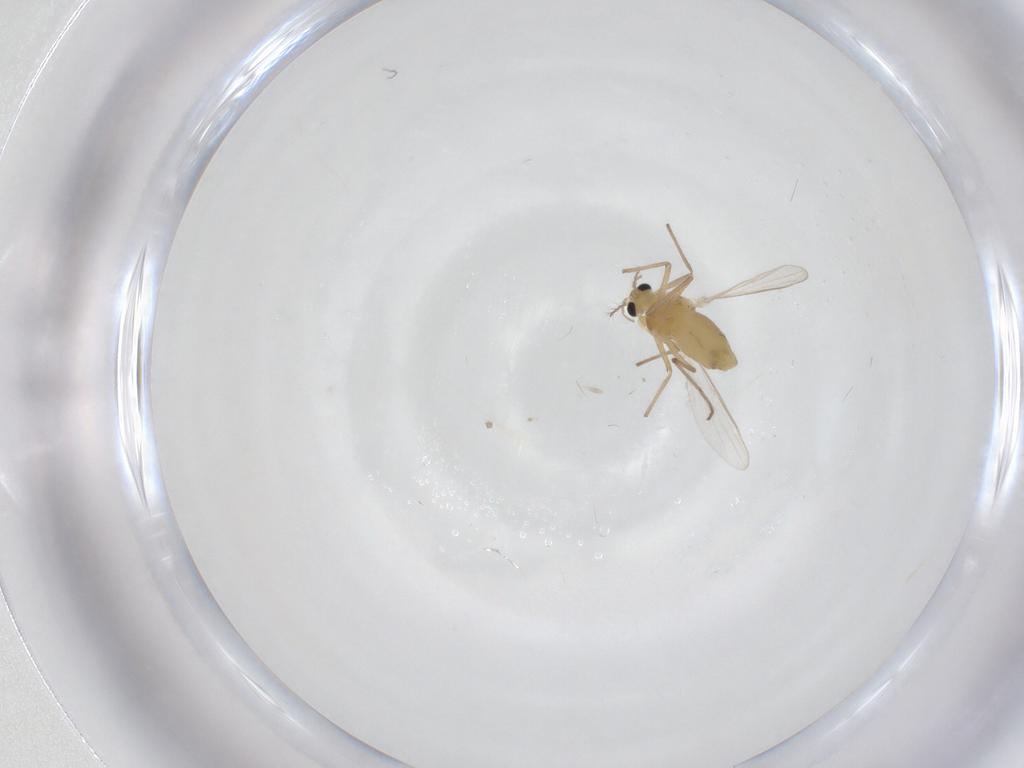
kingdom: Animalia
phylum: Arthropoda
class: Insecta
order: Diptera
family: Chironomidae
